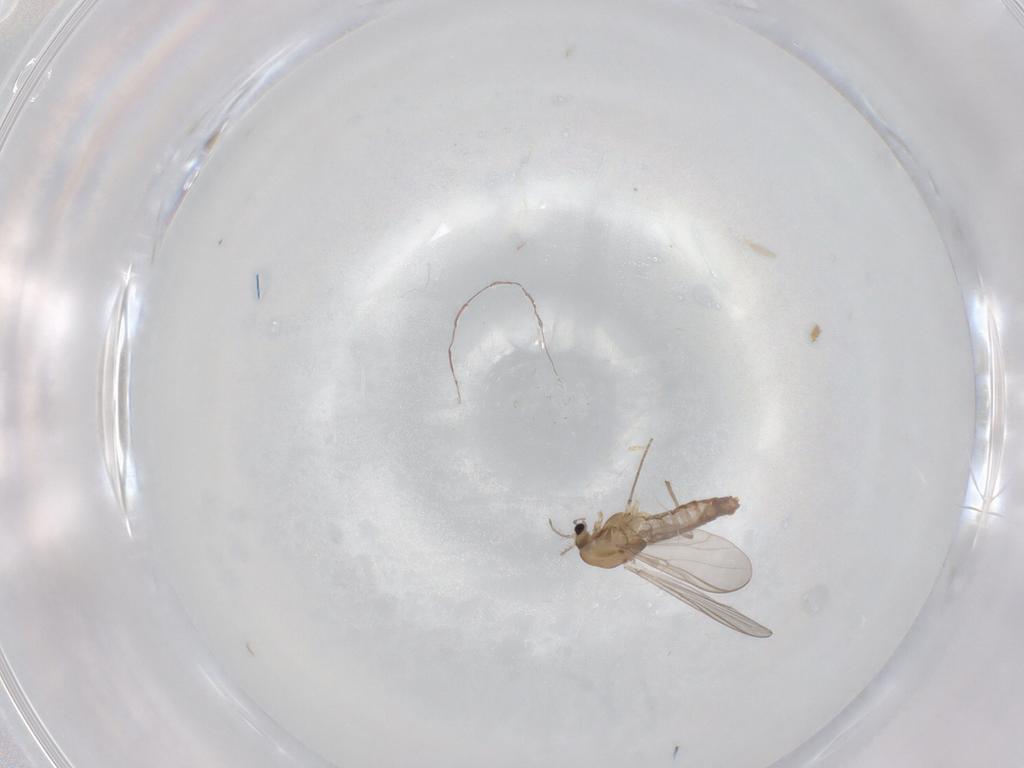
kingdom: Animalia
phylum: Arthropoda
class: Insecta
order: Diptera
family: Chironomidae
